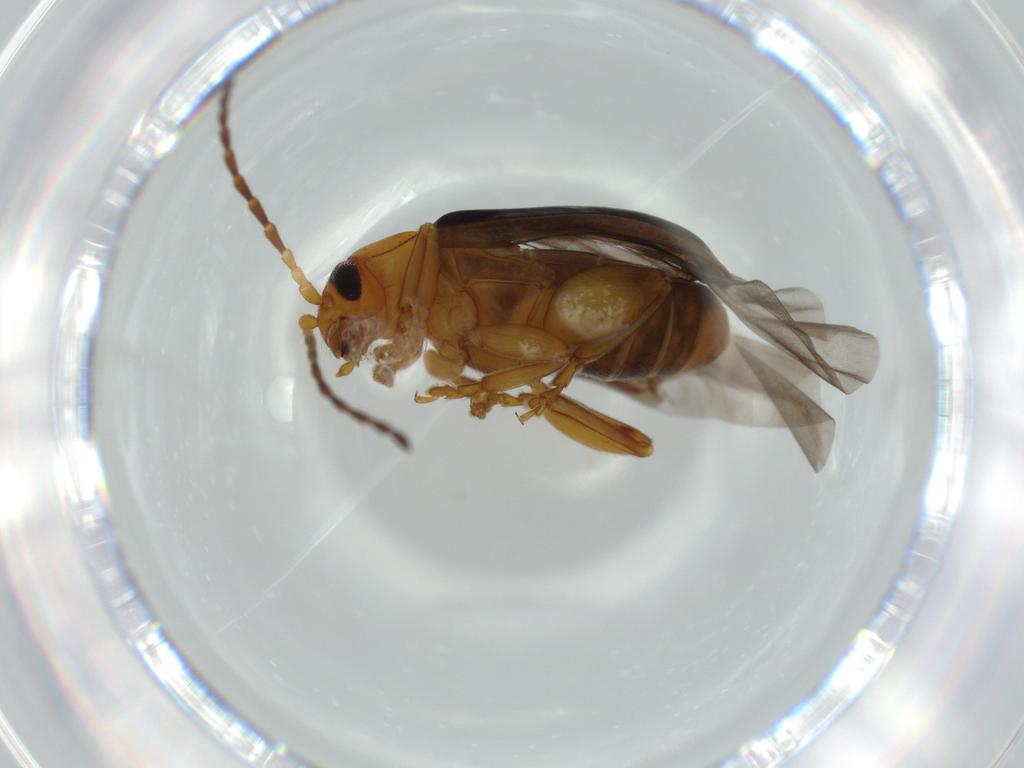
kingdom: Animalia
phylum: Arthropoda
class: Insecta
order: Coleoptera
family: Chrysomelidae
